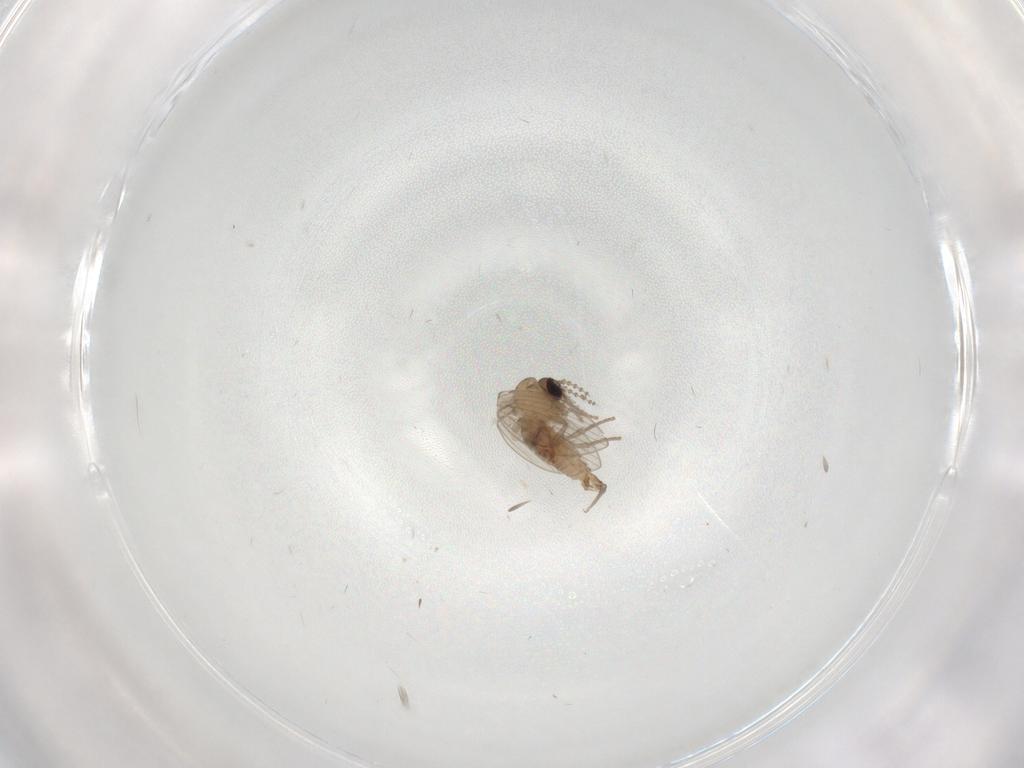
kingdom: Animalia
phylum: Arthropoda
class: Insecta
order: Diptera
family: Psychodidae
